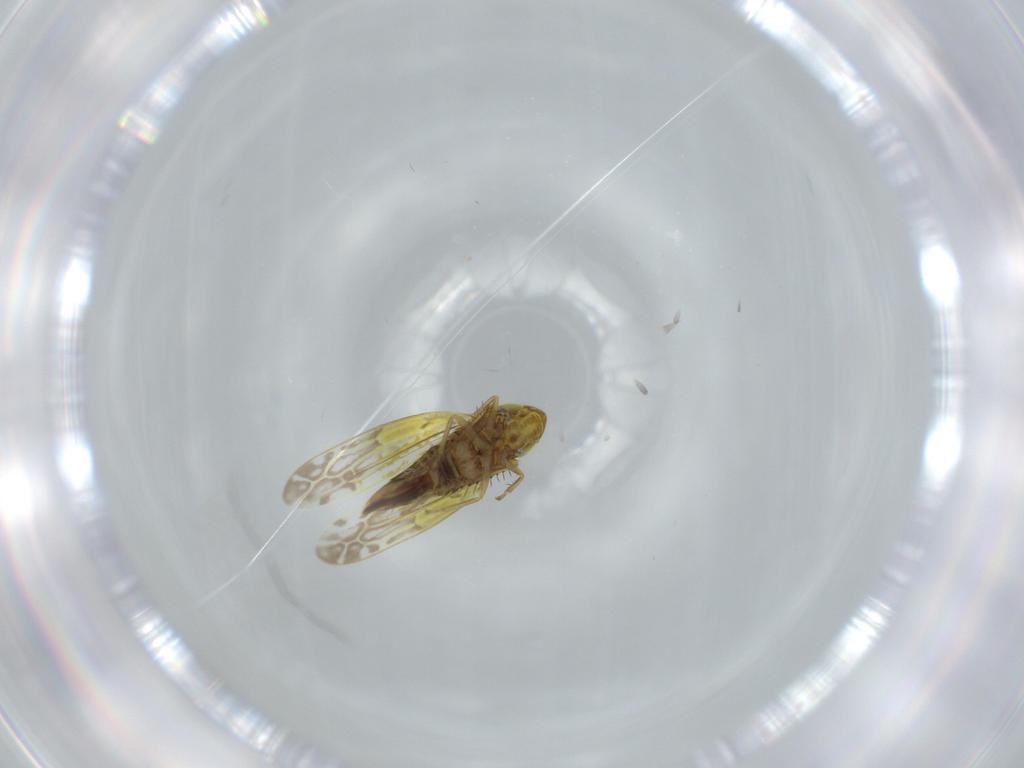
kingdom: Animalia
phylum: Arthropoda
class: Insecta
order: Hemiptera
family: Cicadellidae
